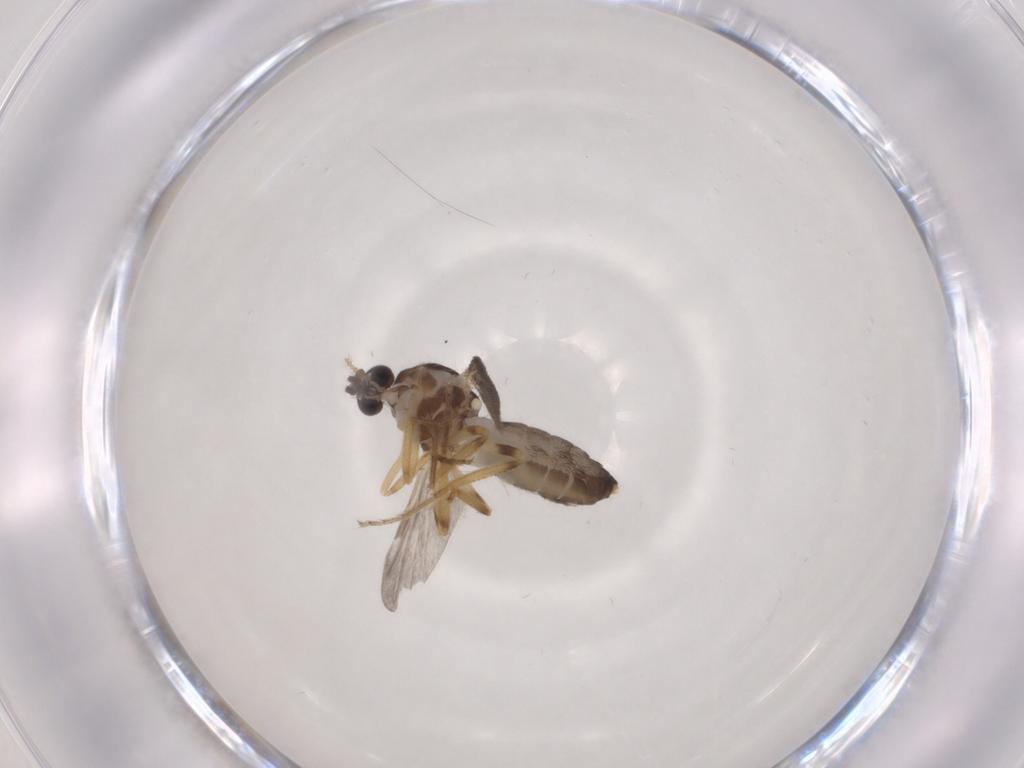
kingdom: Animalia
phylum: Arthropoda
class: Insecta
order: Diptera
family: Ceratopogonidae
